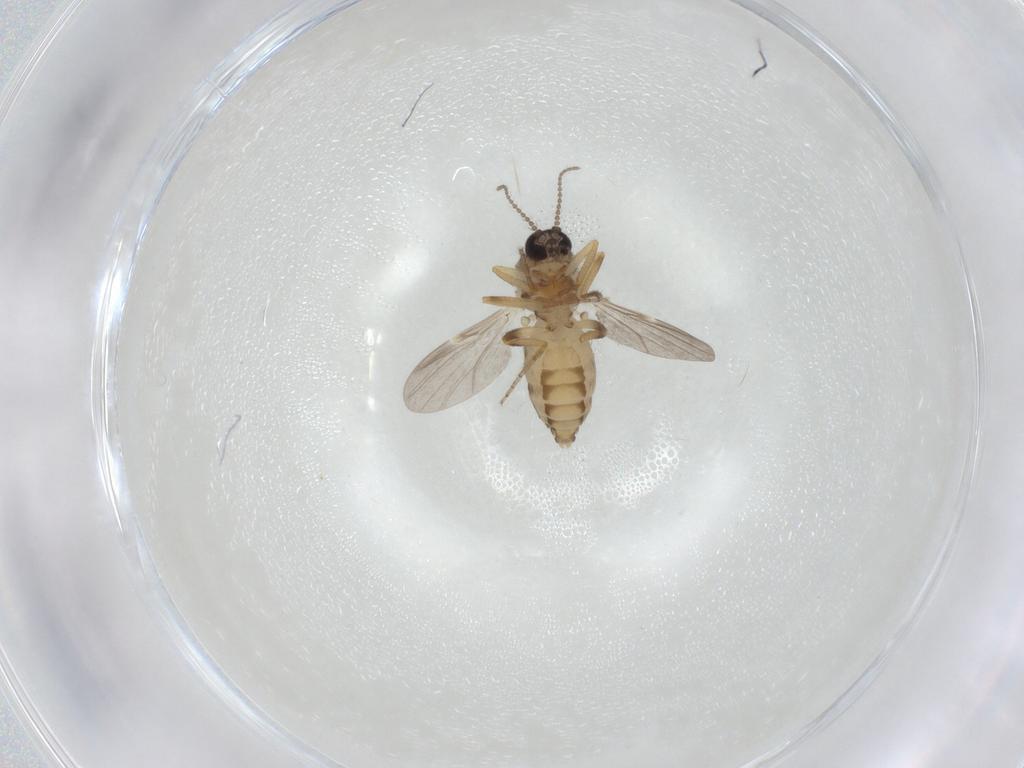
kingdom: Animalia
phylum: Arthropoda
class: Insecta
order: Diptera
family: Cecidomyiidae
